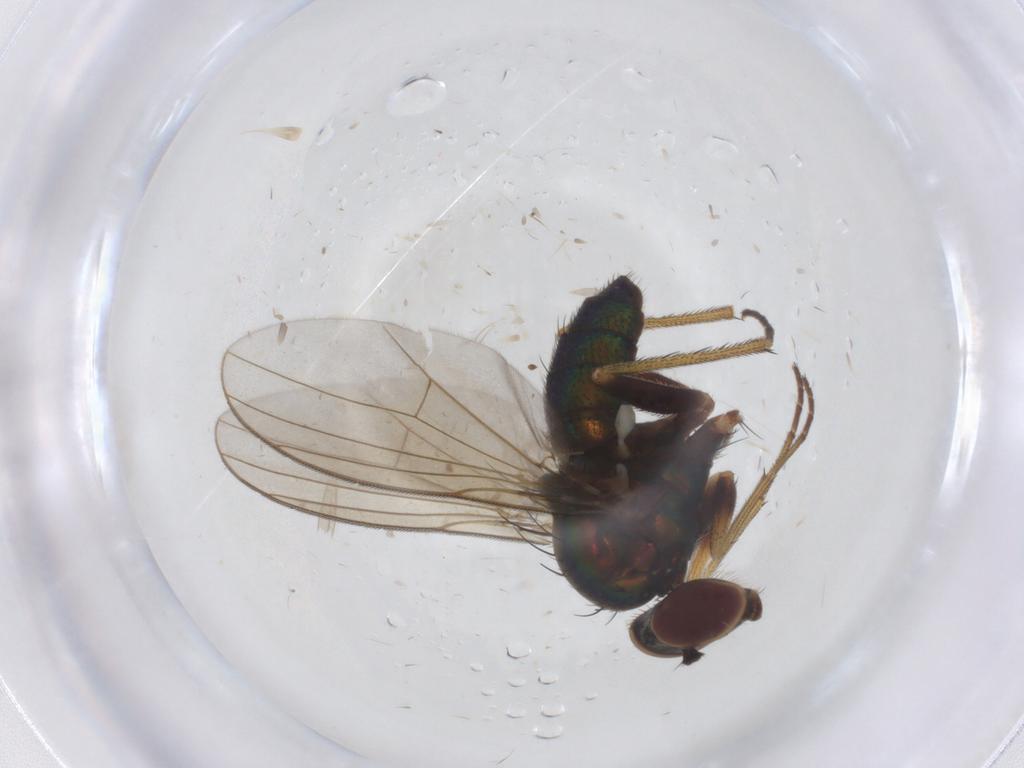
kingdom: Animalia
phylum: Arthropoda
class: Insecta
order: Diptera
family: Dolichopodidae
